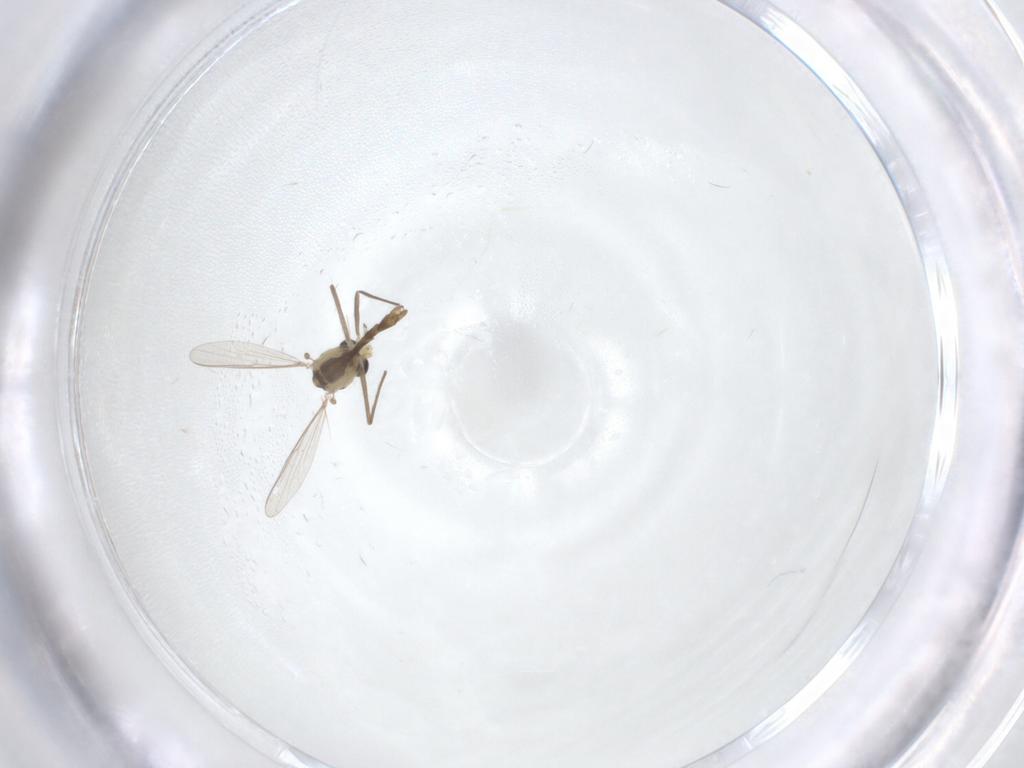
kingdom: Animalia
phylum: Arthropoda
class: Insecta
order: Diptera
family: Chironomidae
